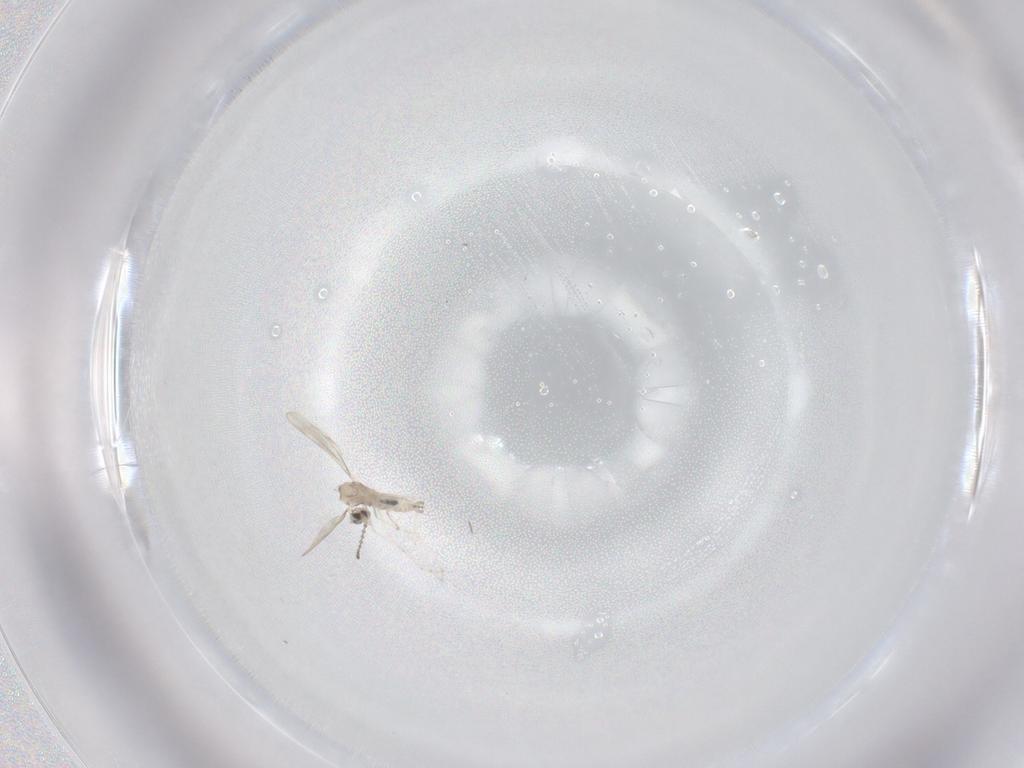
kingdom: Animalia
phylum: Arthropoda
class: Insecta
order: Diptera
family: Cecidomyiidae
